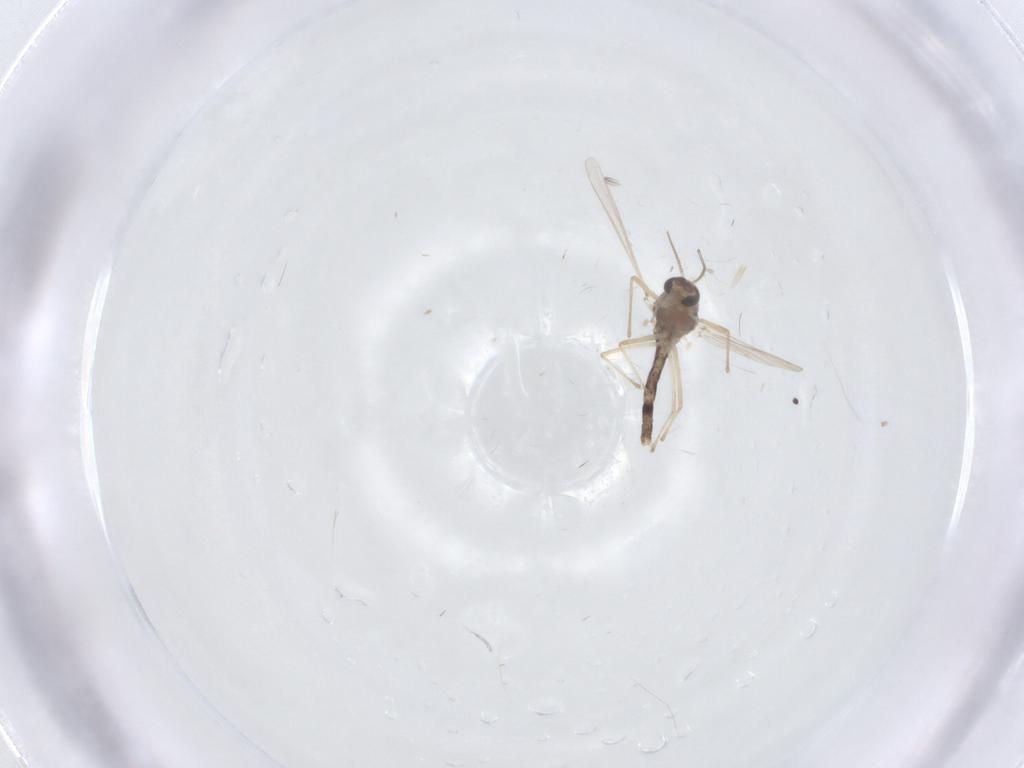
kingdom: Animalia
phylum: Arthropoda
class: Insecta
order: Diptera
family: Chironomidae
